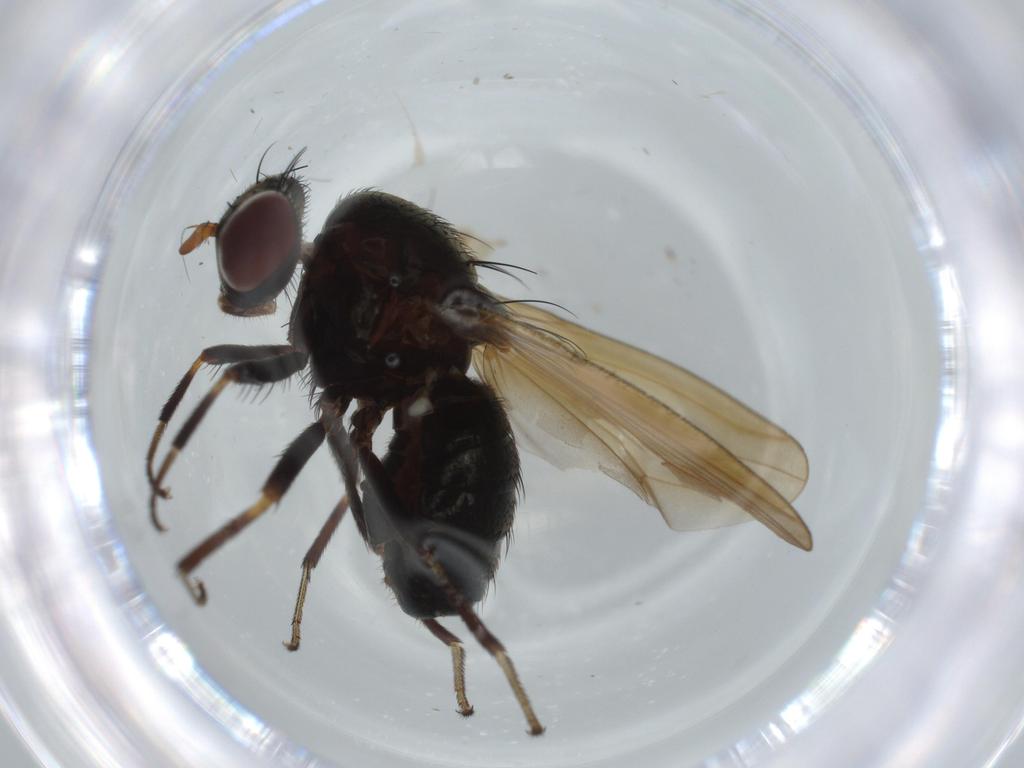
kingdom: Animalia
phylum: Arthropoda
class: Insecta
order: Diptera
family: Lauxaniidae
